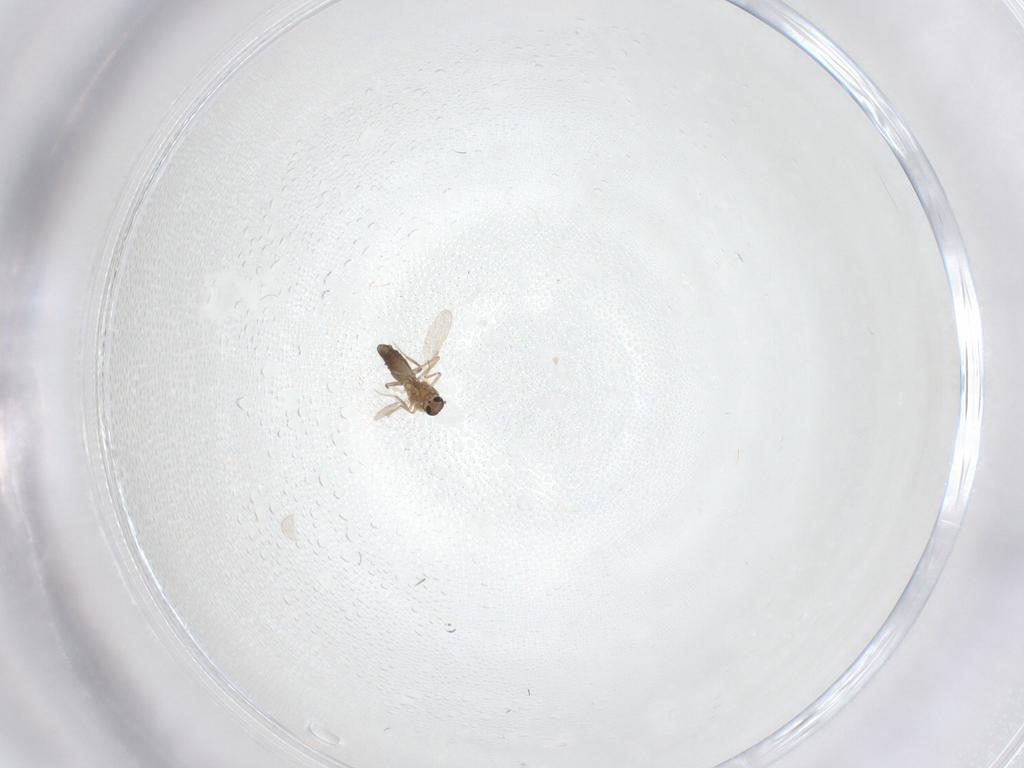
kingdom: Animalia
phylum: Arthropoda
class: Insecta
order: Diptera
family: Ceratopogonidae
